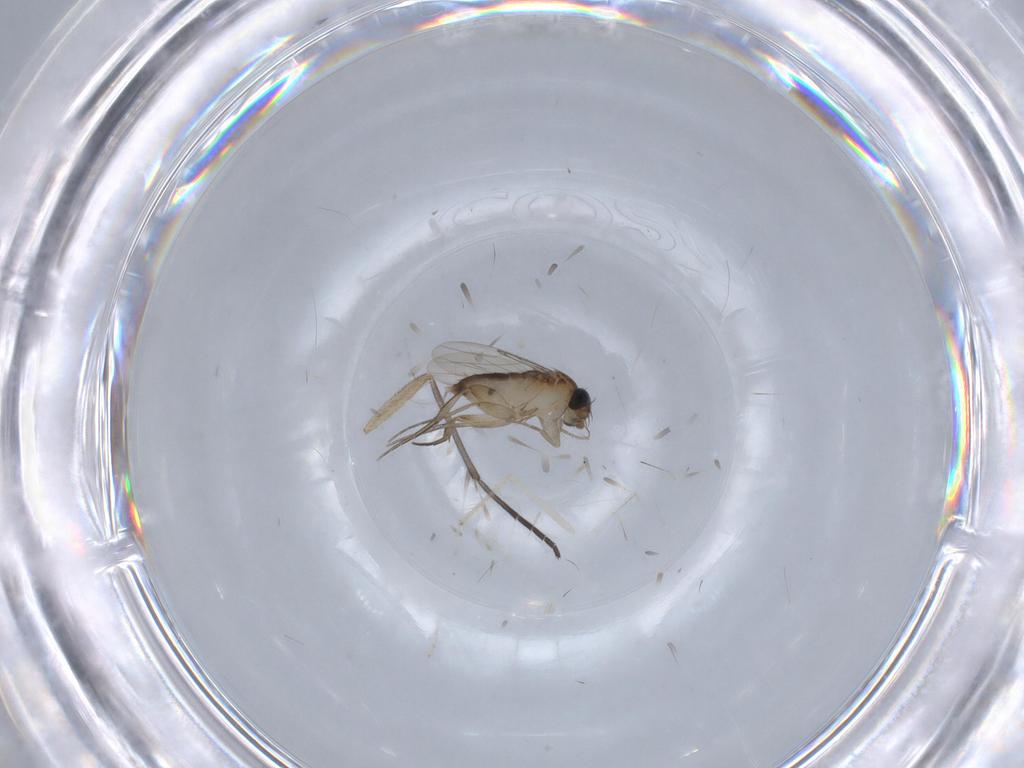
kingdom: Animalia
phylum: Arthropoda
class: Insecta
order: Diptera
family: Phoridae
